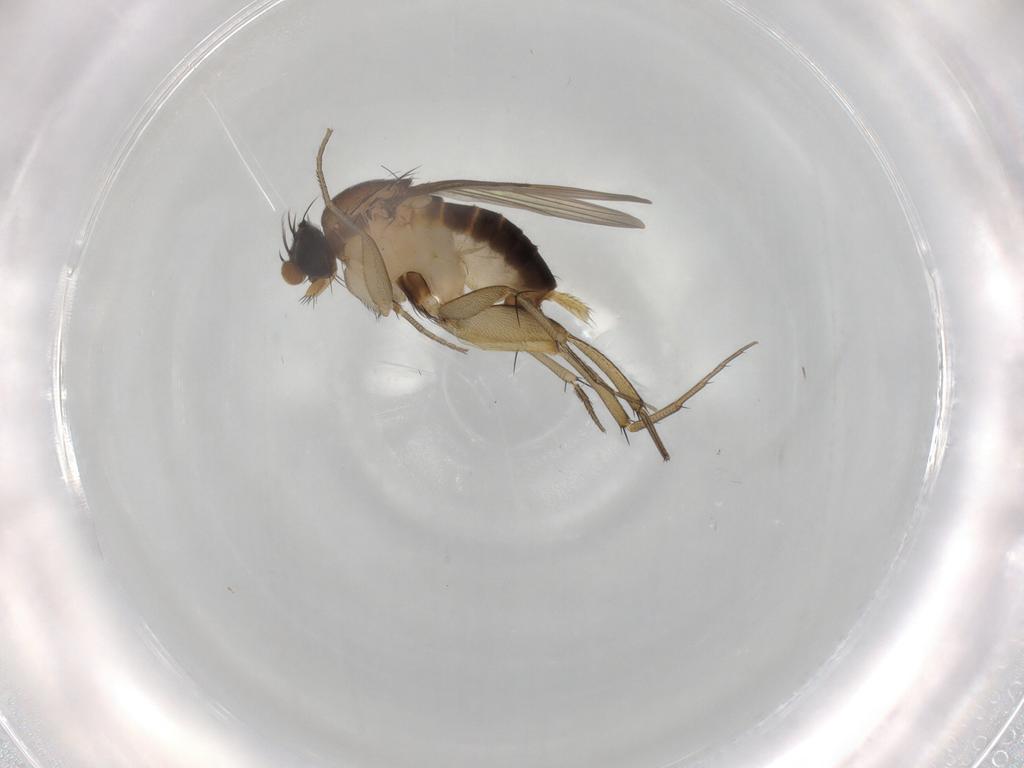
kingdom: Animalia
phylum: Arthropoda
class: Insecta
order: Diptera
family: Phoridae
